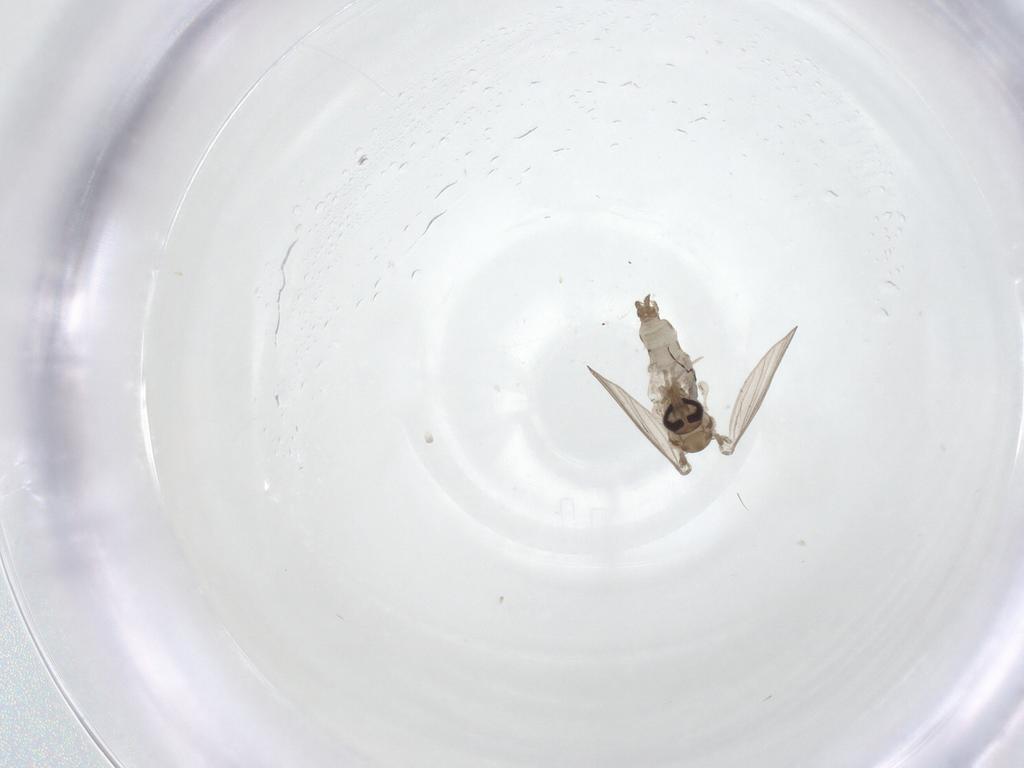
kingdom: Animalia
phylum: Arthropoda
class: Insecta
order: Diptera
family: Psychodidae
